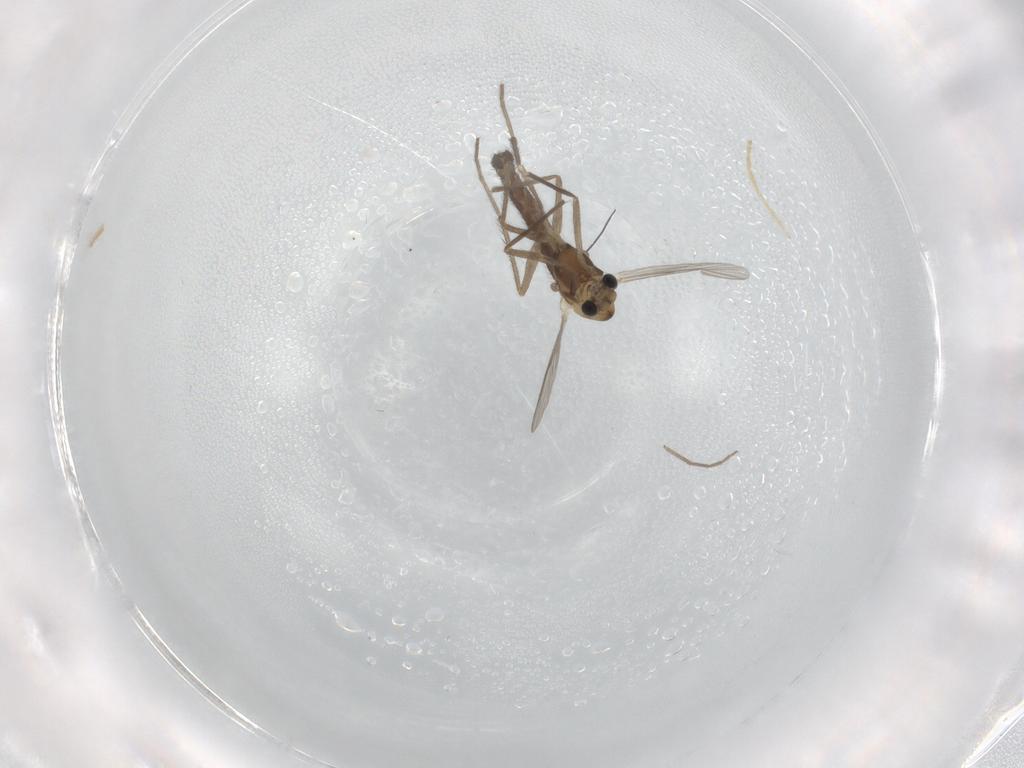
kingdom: Animalia
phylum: Arthropoda
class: Insecta
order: Diptera
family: Chironomidae
